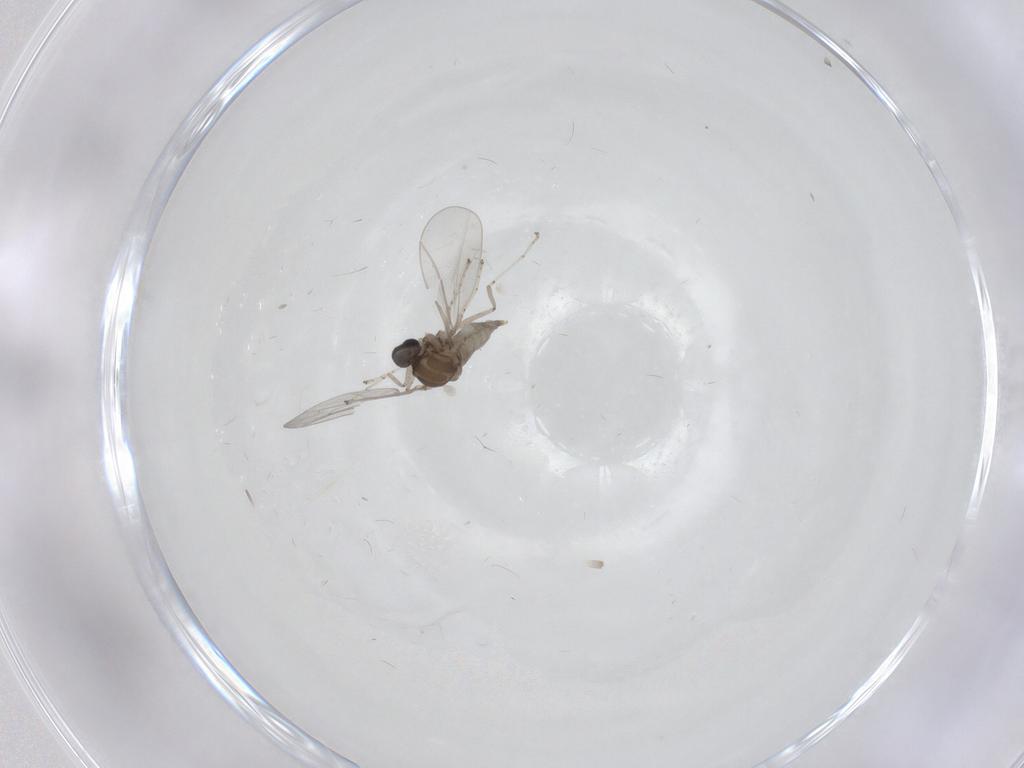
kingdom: Animalia
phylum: Arthropoda
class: Insecta
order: Diptera
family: Cecidomyiidae
